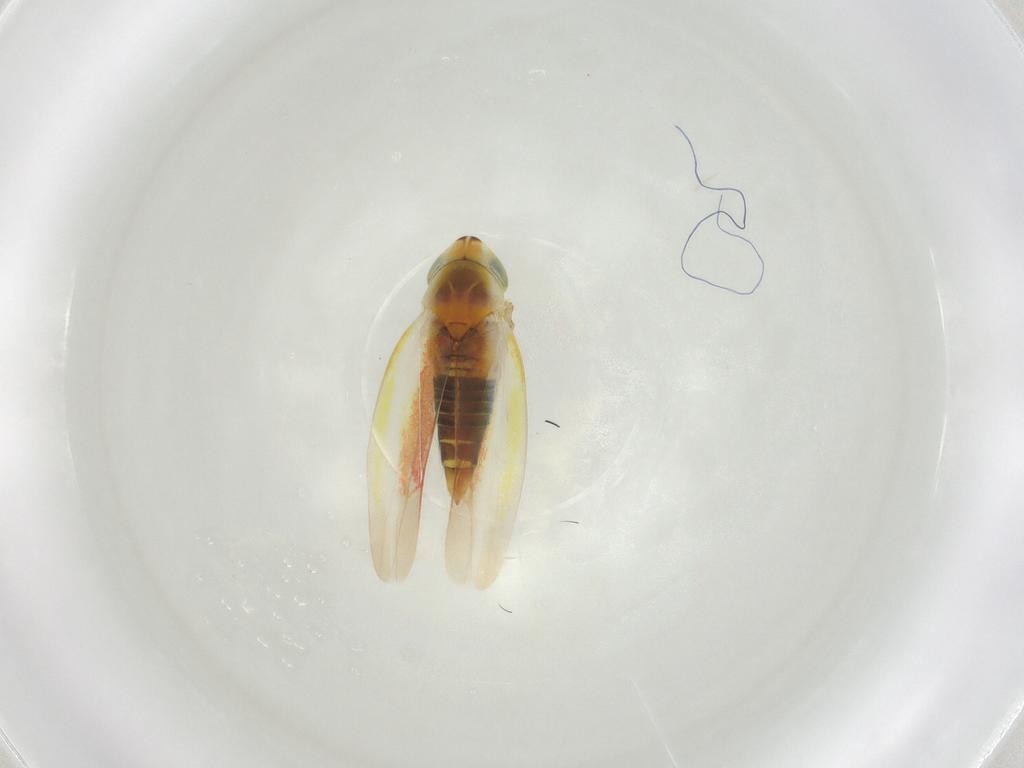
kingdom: Animalia
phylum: Arthropoda
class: Insecta
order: Hemiptera
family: Cicadellidae
